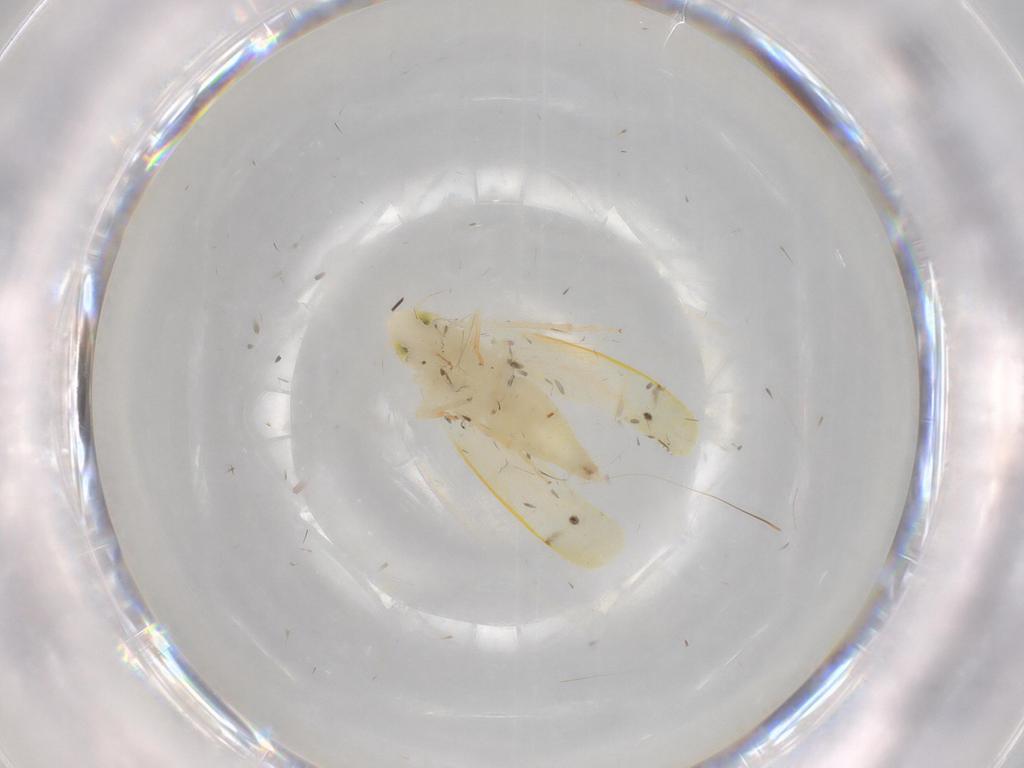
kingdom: Animalia
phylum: Arthropoda
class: Insecta
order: Hemiptera
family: Cicadellidae
